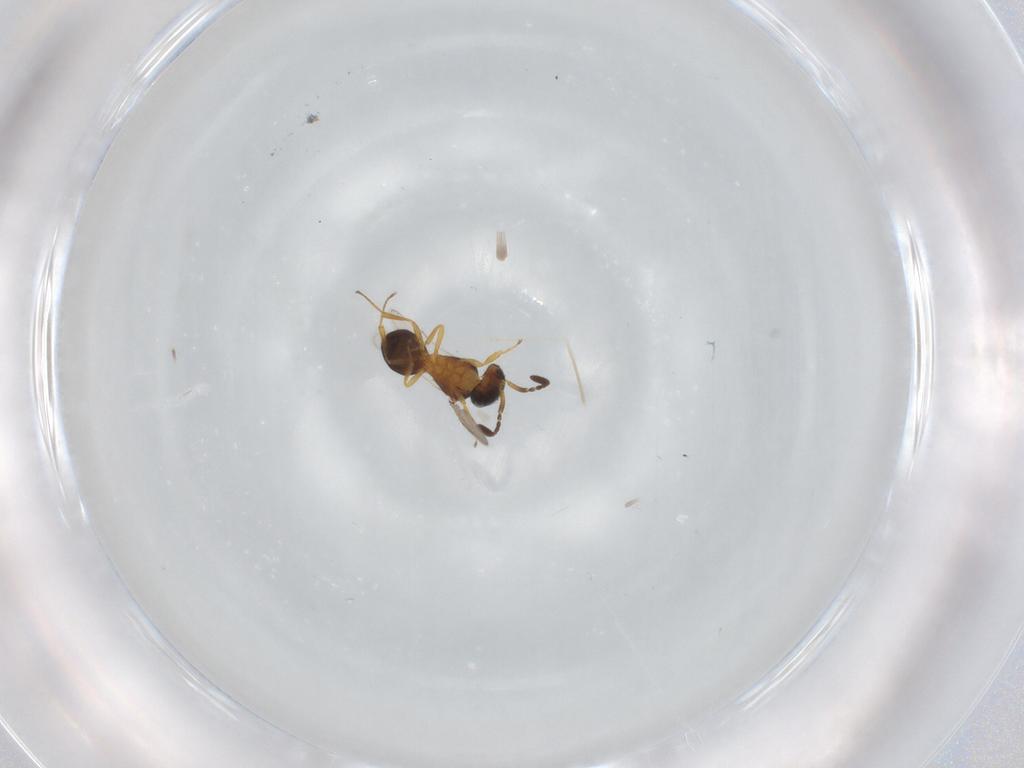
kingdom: Animalia
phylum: Arthropoda
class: Insecta
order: Hymenoptera
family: Scelionidae
